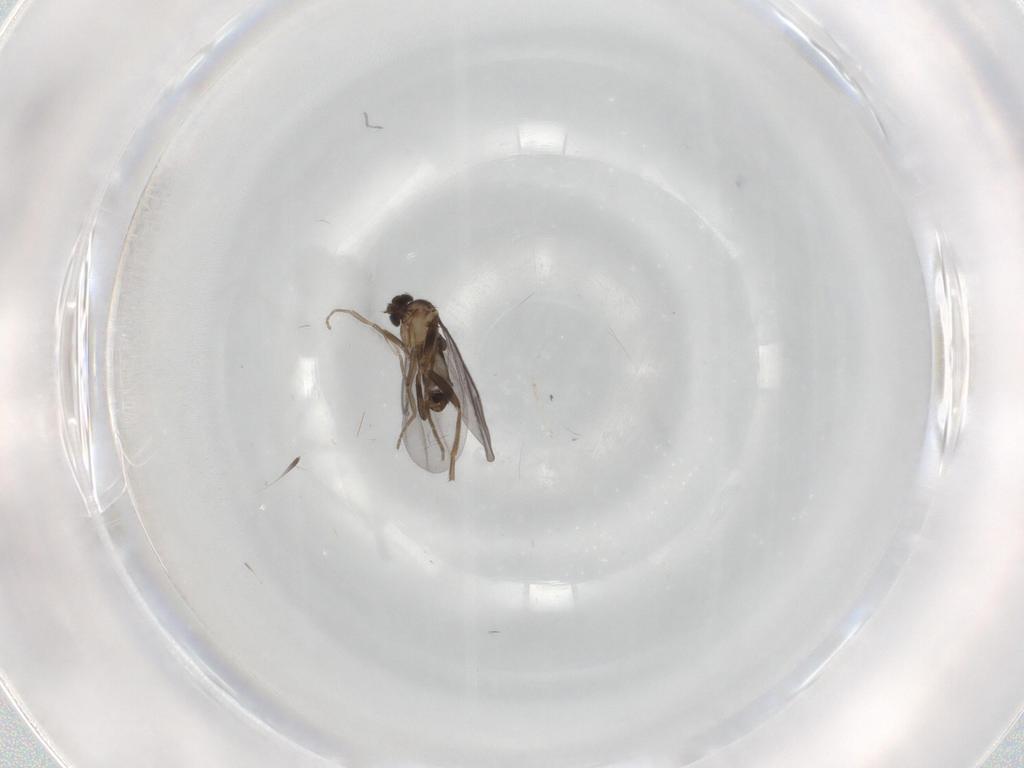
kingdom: Animalia
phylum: Arthropoda
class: Insecta
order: Diptera
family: Phoridae
